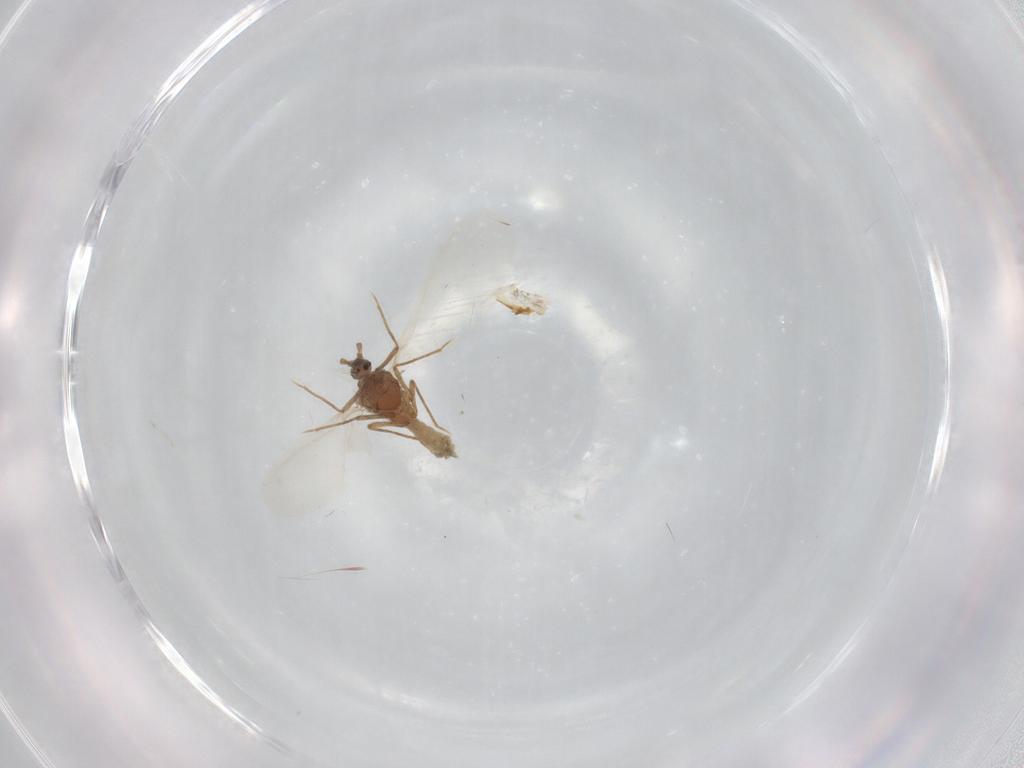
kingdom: Animalia
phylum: Arthropoda
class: Insecta
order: Hemiptera
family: Pseudococcidae
